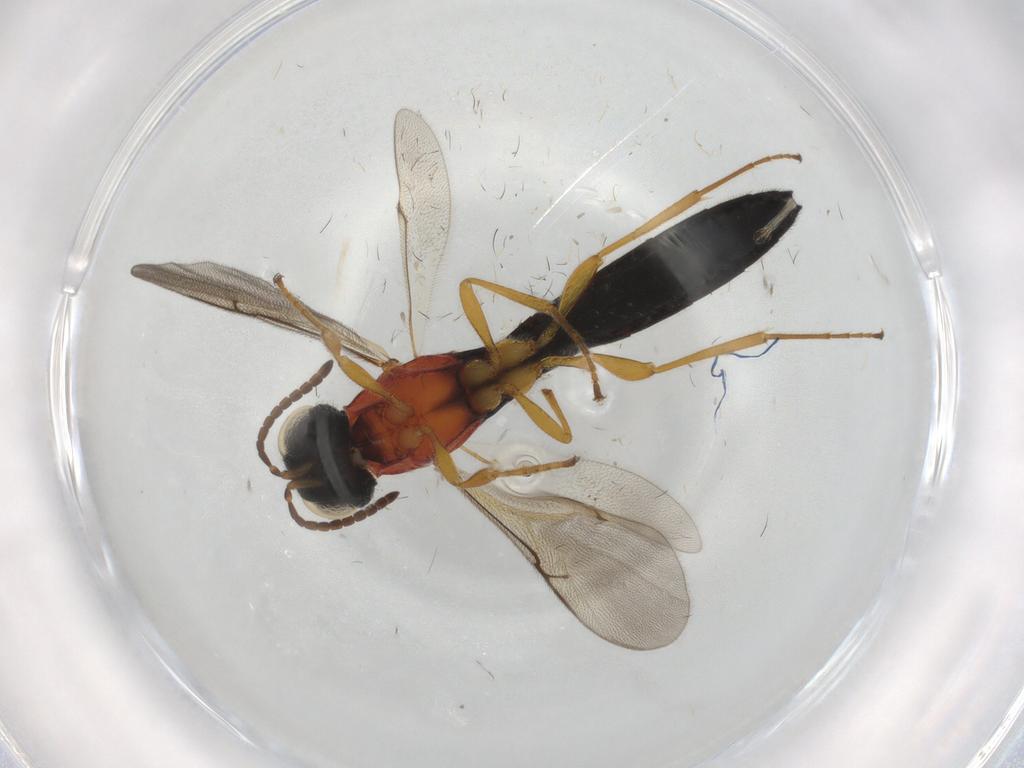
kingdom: Animalia
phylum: Arthropoda
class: Insecta
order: Hymenoptera
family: Scelionidae
